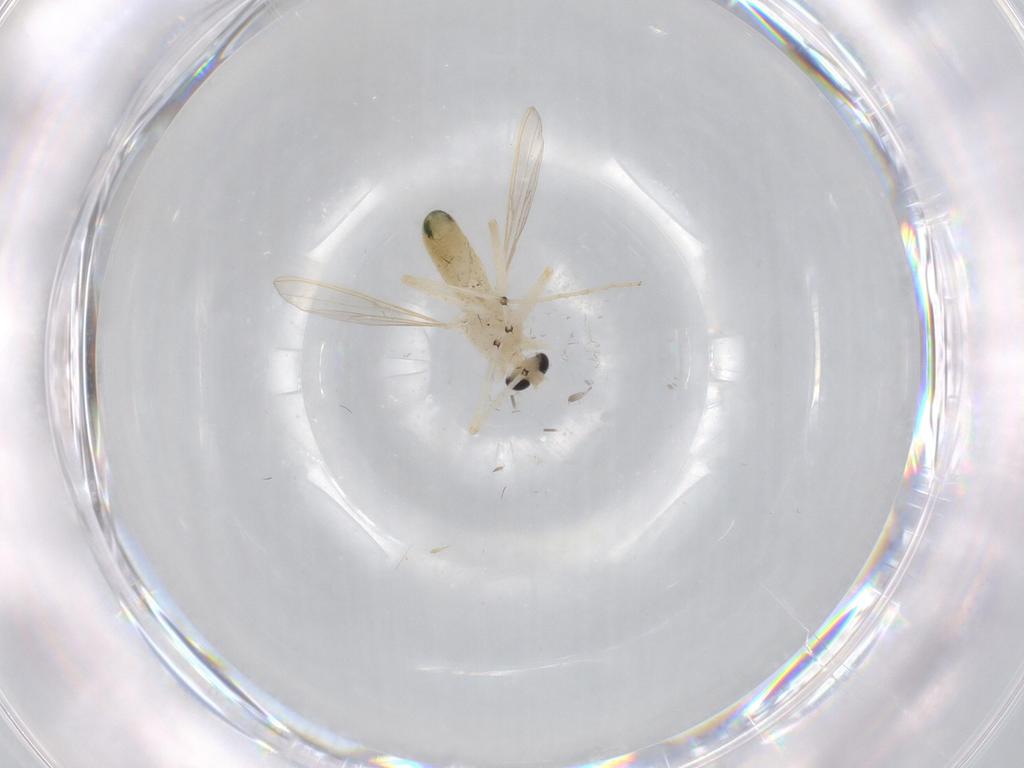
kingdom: Animalia
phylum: Arthropoda
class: Insecta
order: Diptera
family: Chironomidae
